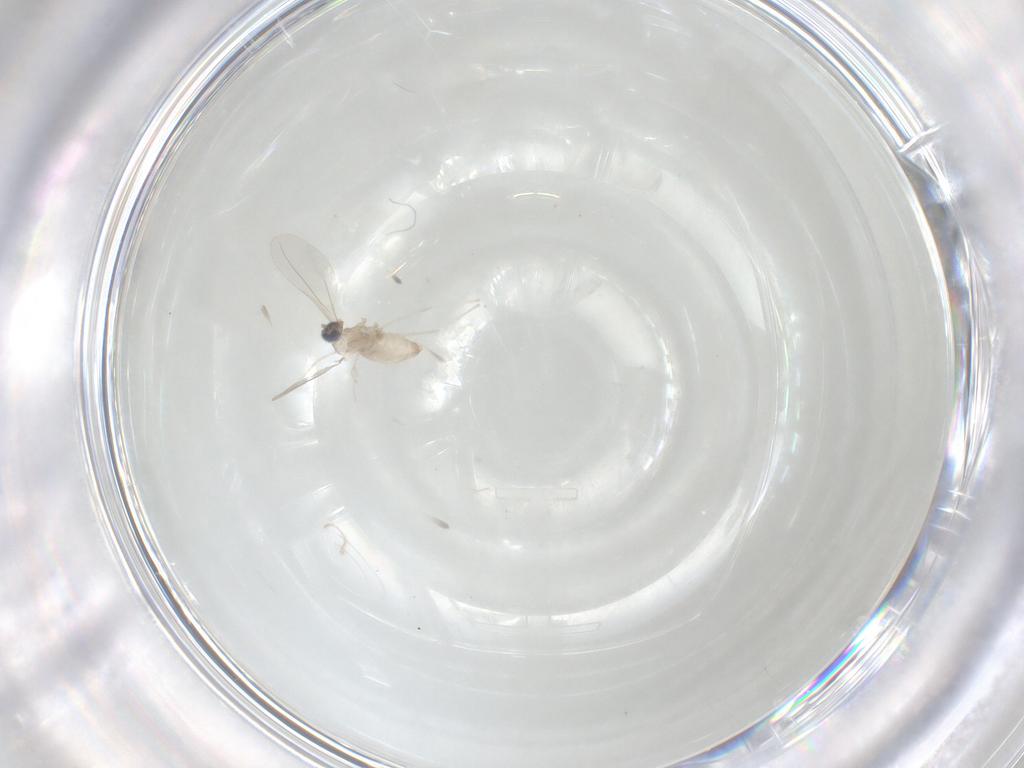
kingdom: Animalia
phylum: Arthropoda
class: Insecta
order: Diptera
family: Cecidomyiidae
